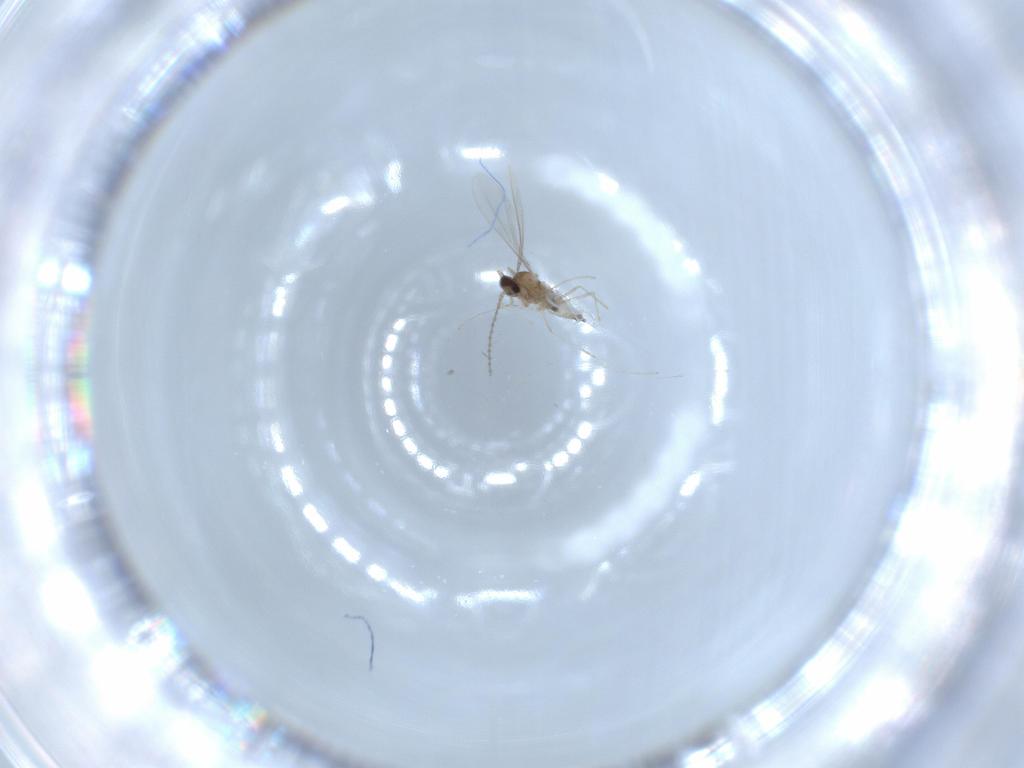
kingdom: Animalia
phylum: Arthropoda
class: Insecta
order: Diptera
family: Cecidomyiidae
